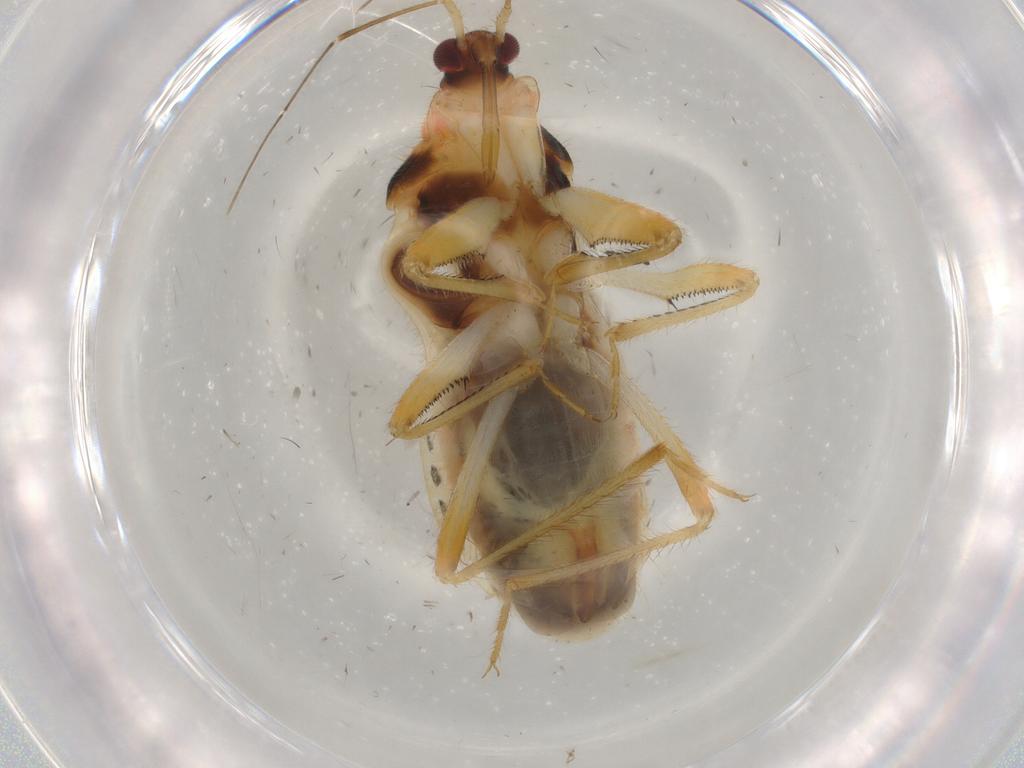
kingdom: Animalia
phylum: Arthropoda
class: Insecta
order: Hemiptera
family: Nabidae
